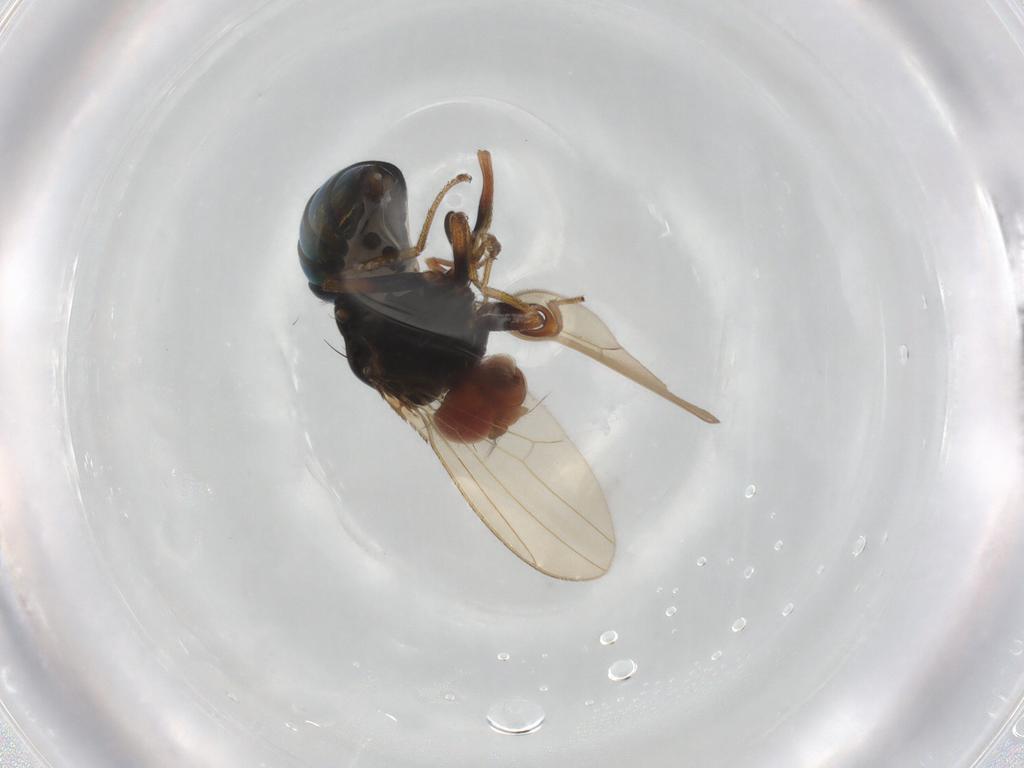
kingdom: Animalia
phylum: Arthropoda
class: Insecta
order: Diptera
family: Drosophilidae
